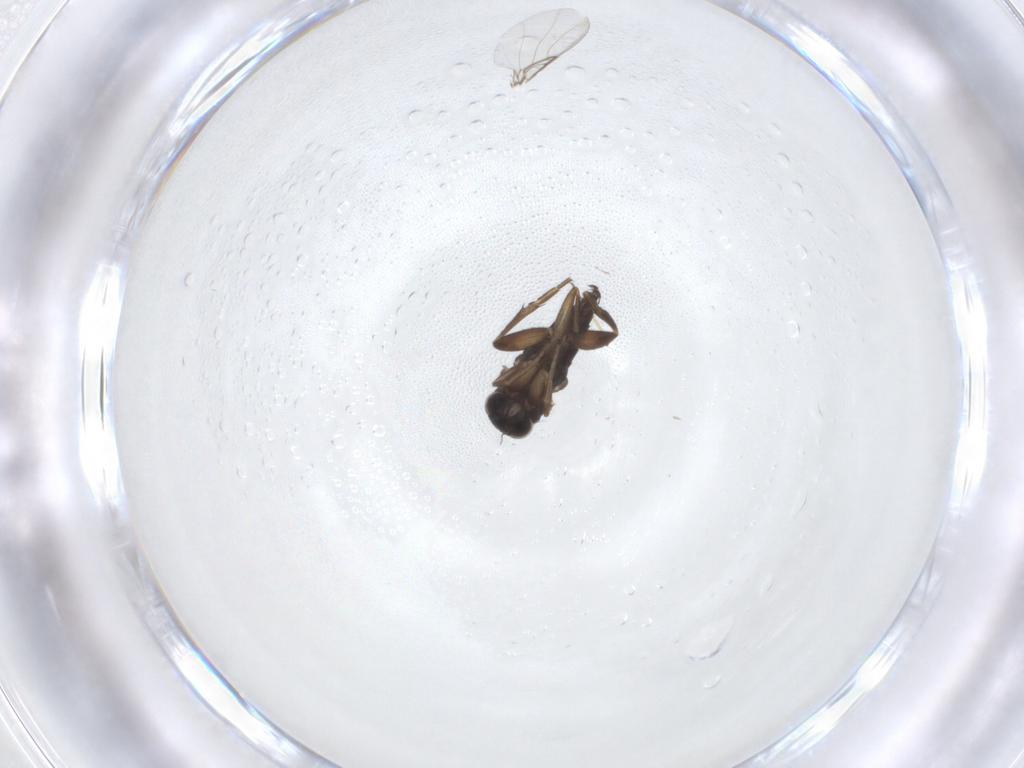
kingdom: Animalia
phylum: Arthropoda
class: Insecta
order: Diptera
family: Phoridae
